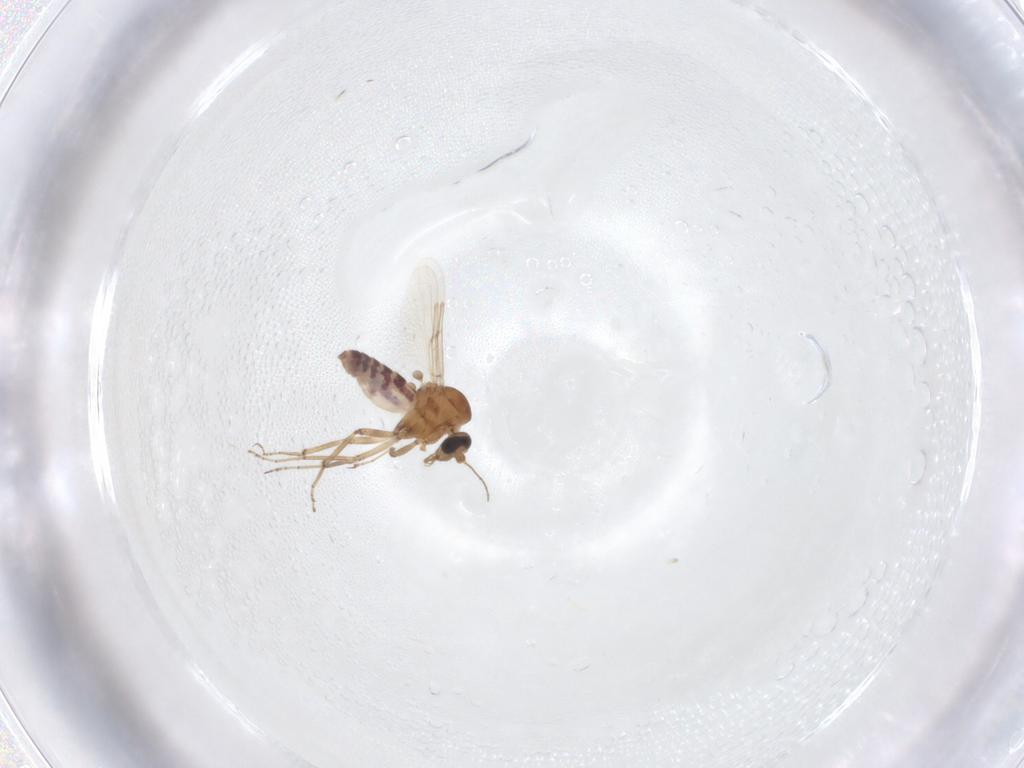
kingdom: Animalia
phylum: Arthropoda
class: Insecta
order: Diptera
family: Ceratopogonidae
